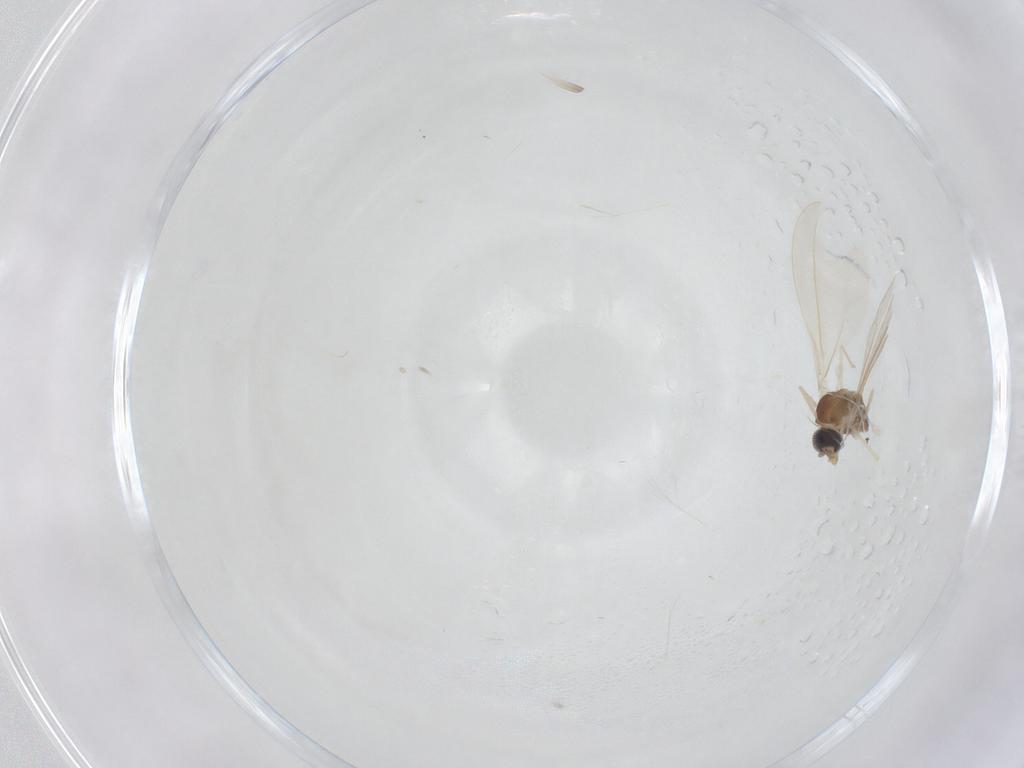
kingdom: Animalia
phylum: Arthropoda
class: Insecta
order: Diptera
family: Cecidomyiidae
